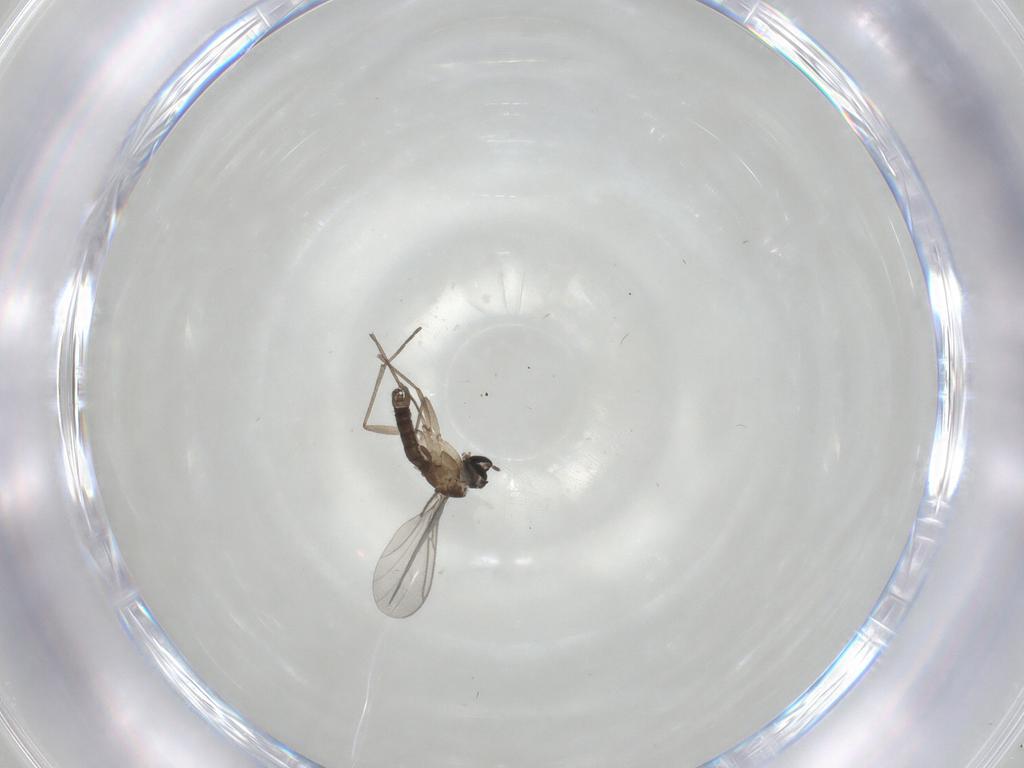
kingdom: Animalia
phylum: Arthropoda
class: Insecta
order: Diptera
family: Sciaridae
